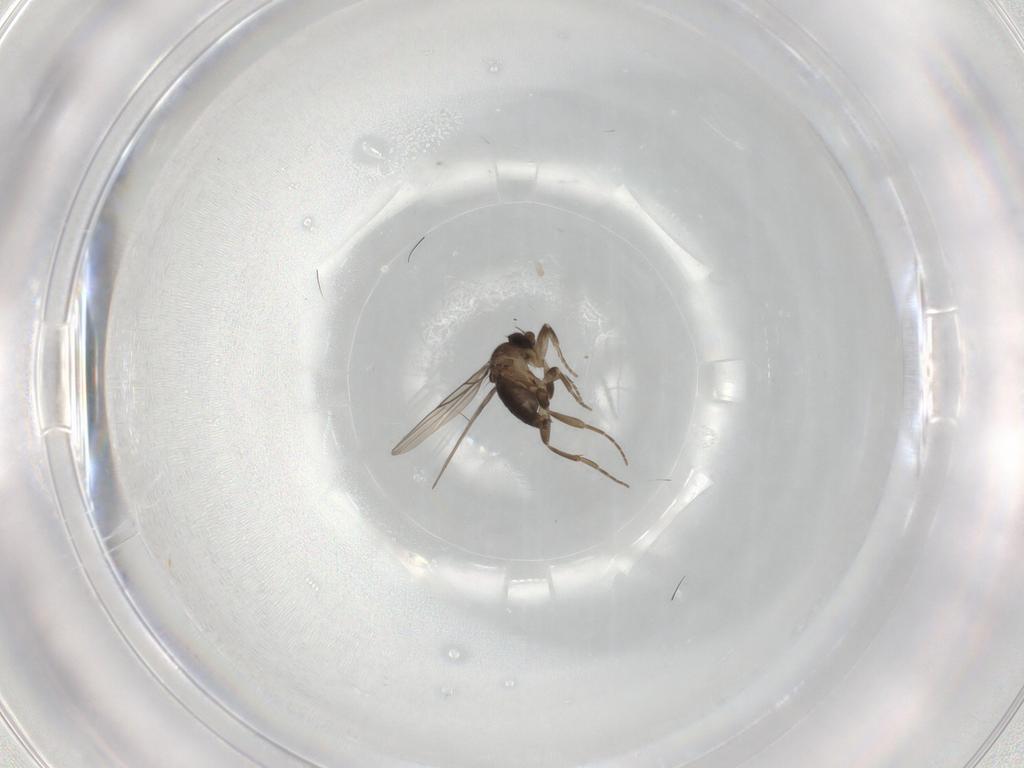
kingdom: Animalia
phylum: Arthropoda
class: Insecta
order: Diptera
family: Phoridae
